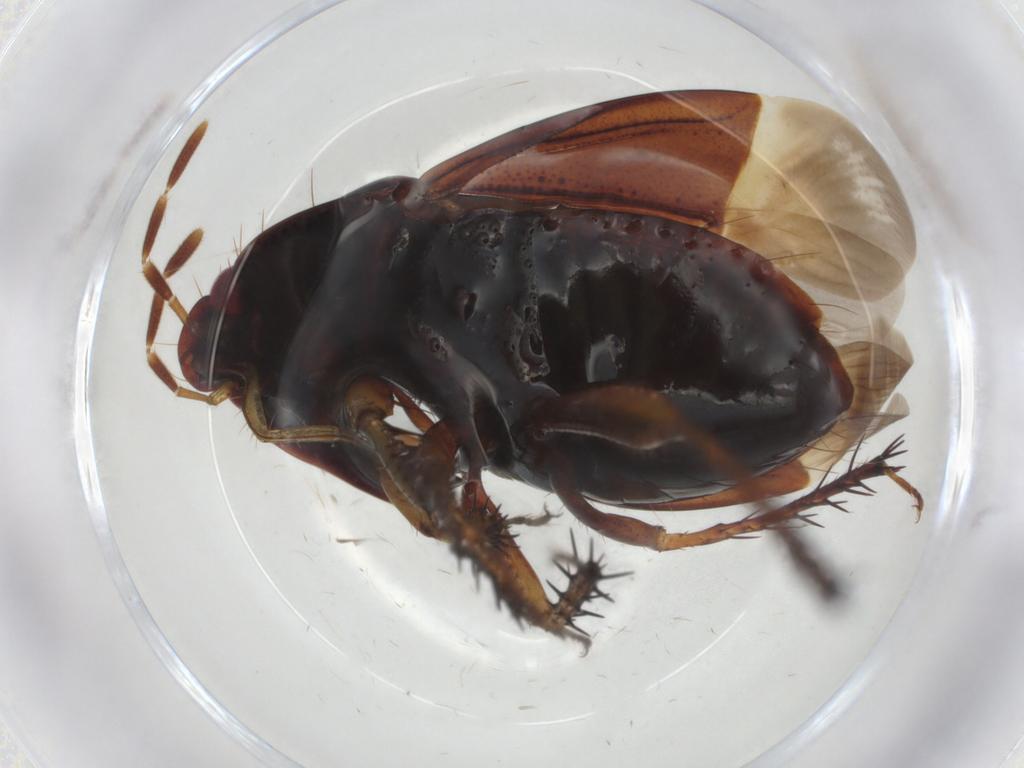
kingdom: Animalia
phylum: Arthropoda
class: Insecta
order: Hemiptera
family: Cydnidae
